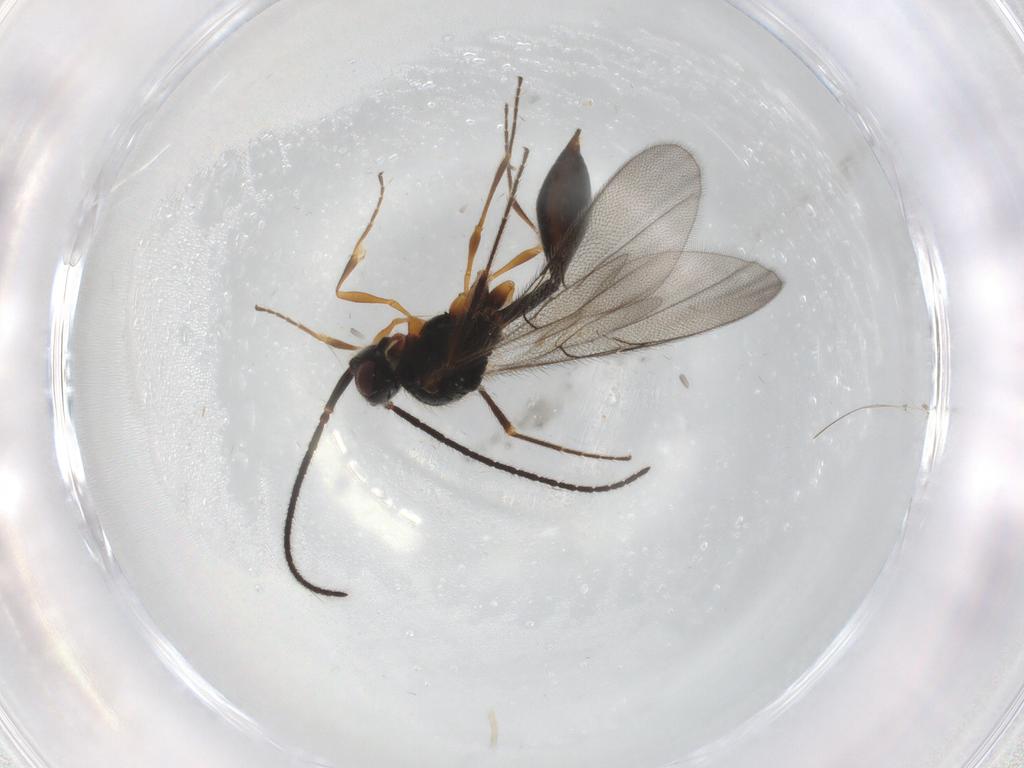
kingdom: Animalia
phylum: Arthropoda
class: Insecta
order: Hymenoptera
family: Diapriidae
